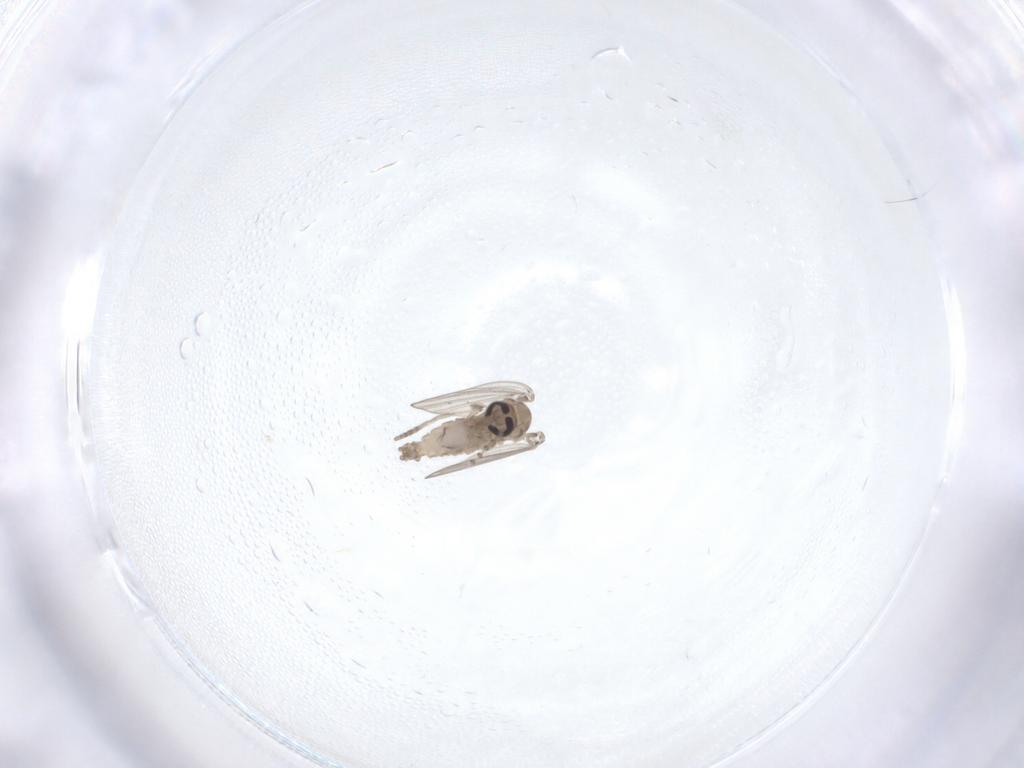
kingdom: Animalia
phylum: Arthropoda
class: Insecta
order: Diptera
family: Psychodidae
